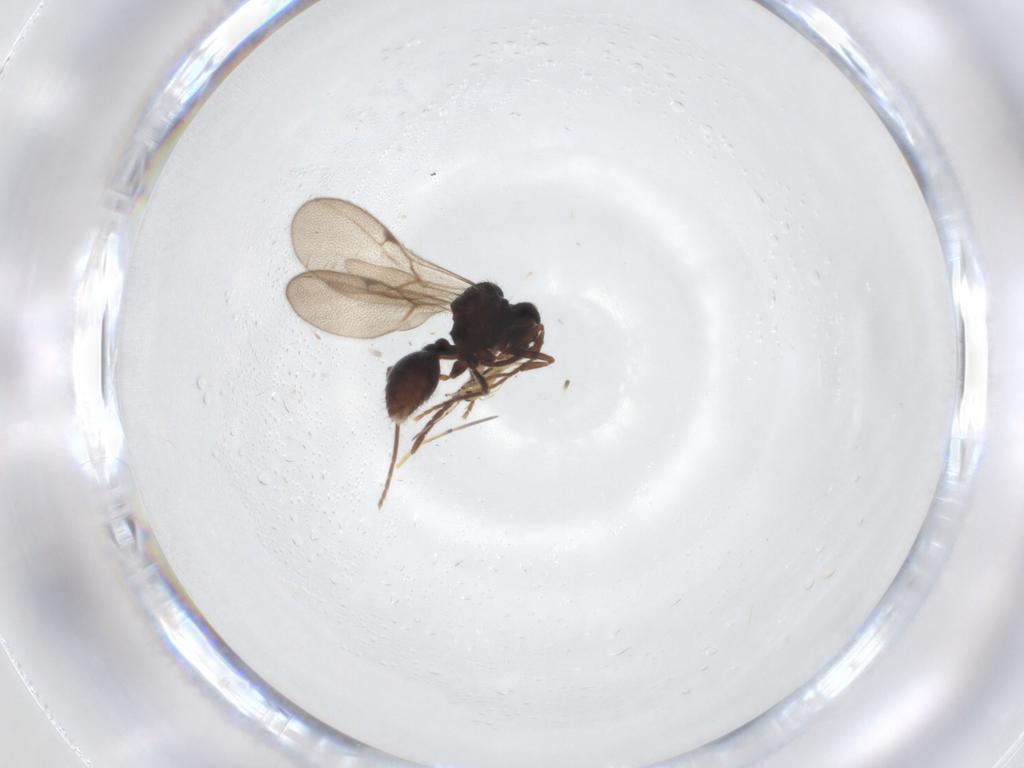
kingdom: Animalia
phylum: Arthropoda
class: Insecta
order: Hymenoptera
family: Formicidae
